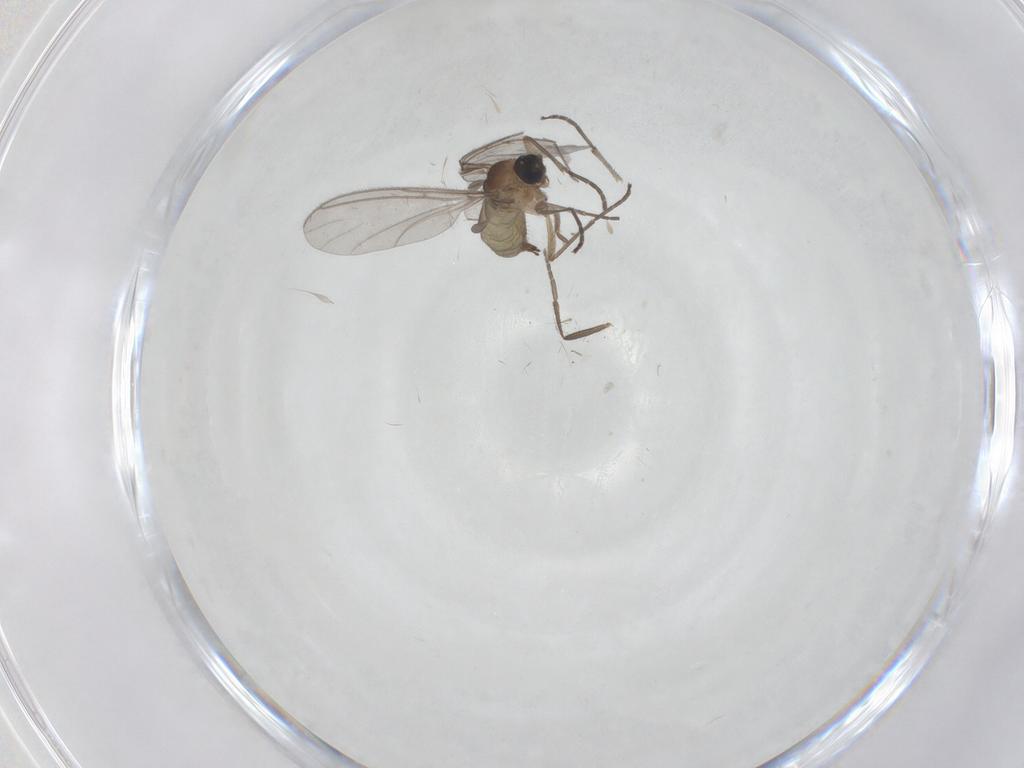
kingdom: Animalia
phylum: Arthropoda
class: Insecta
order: Diptera
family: Sciaridae
